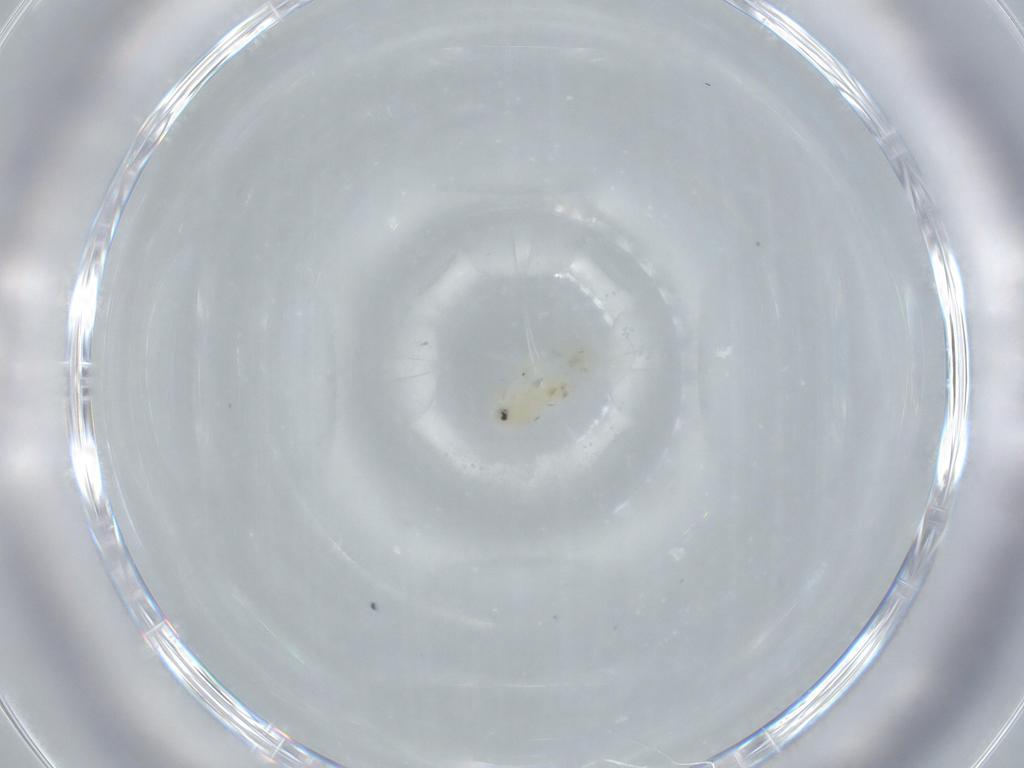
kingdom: Animalia
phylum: Arthropoda
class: Insecta
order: Hemiptera
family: Aleyrodidae
